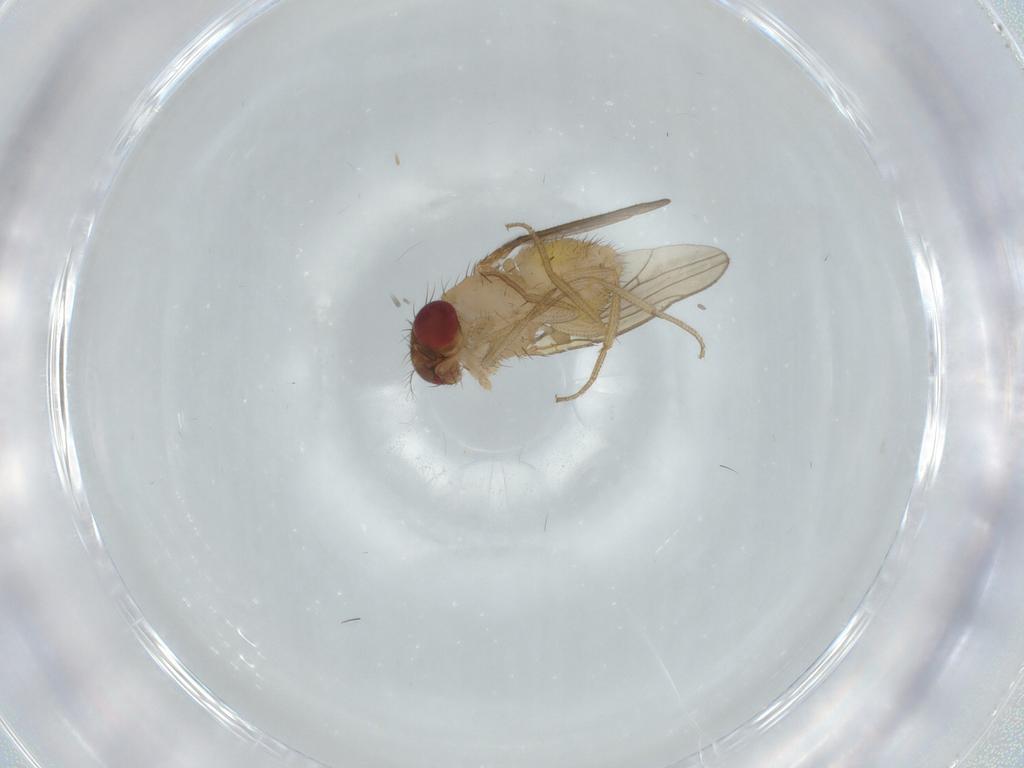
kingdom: Animalia
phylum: Arthropoda
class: Insecta
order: Diptera
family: Drosophilidae
